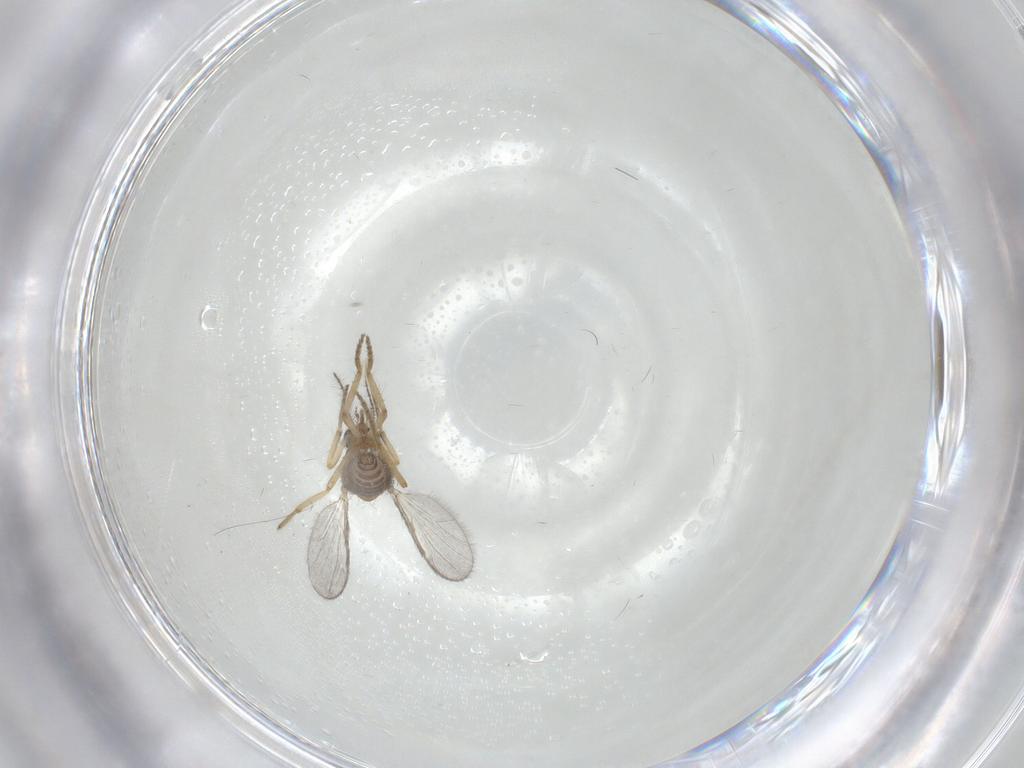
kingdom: Animalia
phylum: Arthropoda
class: Insecta
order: Diptera
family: Ceratopogonidae
